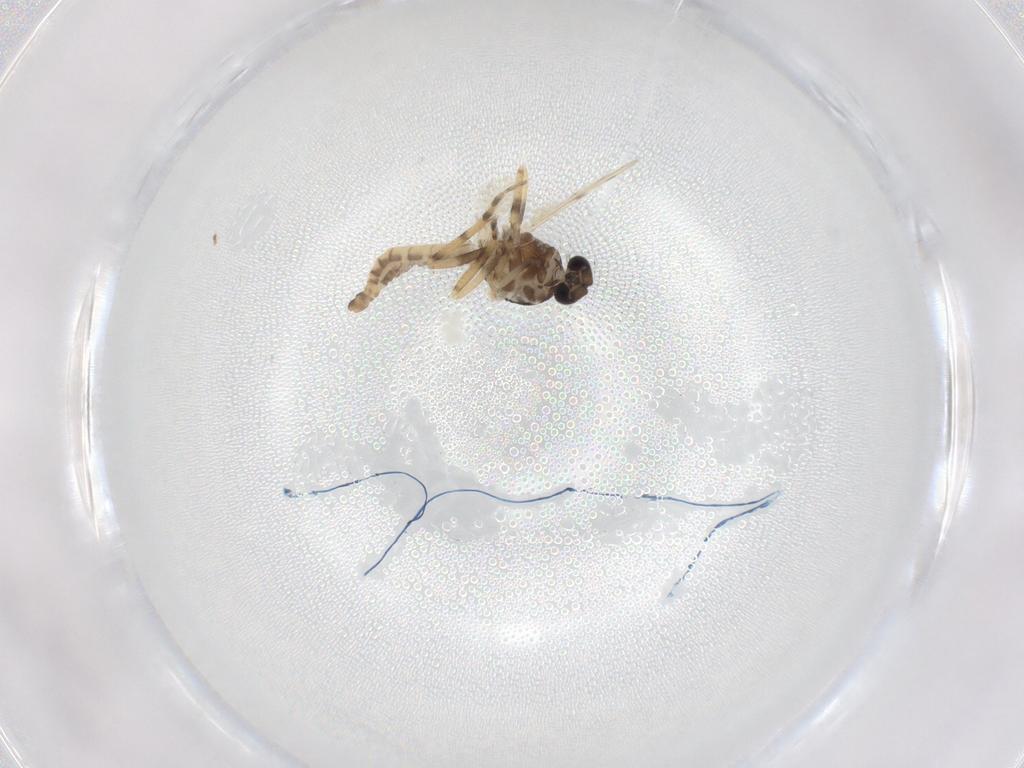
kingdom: Animalia
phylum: Arthropoda
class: Insecta
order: Diptera
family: Ceratopogonidae
